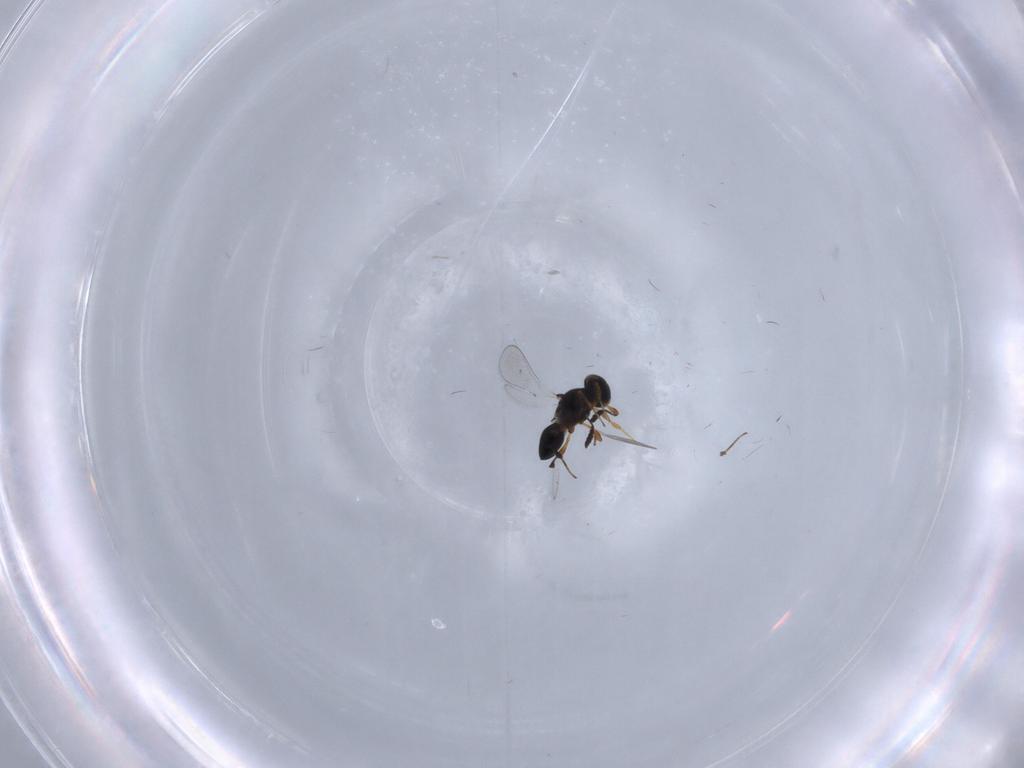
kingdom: Animalia
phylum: Arthropoda
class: Insecta
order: Hymenoptera
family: Platygastridae
